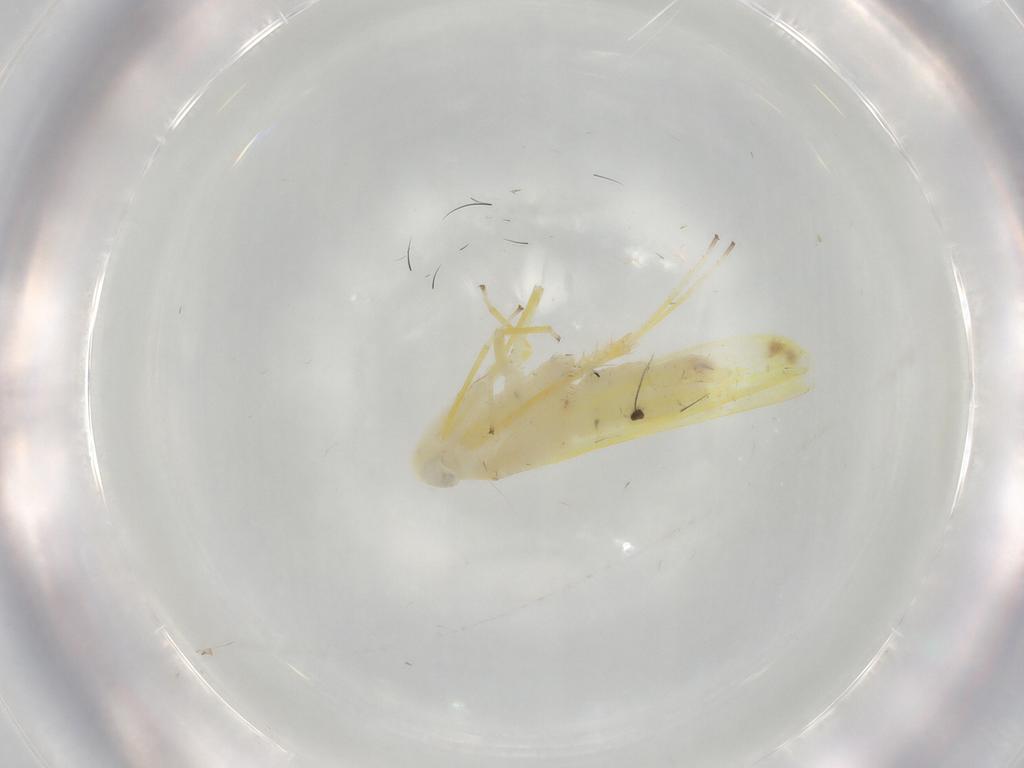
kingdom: Animalia
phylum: Arthropoda
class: Insecta
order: Hemiptera
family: Cicadellidae
